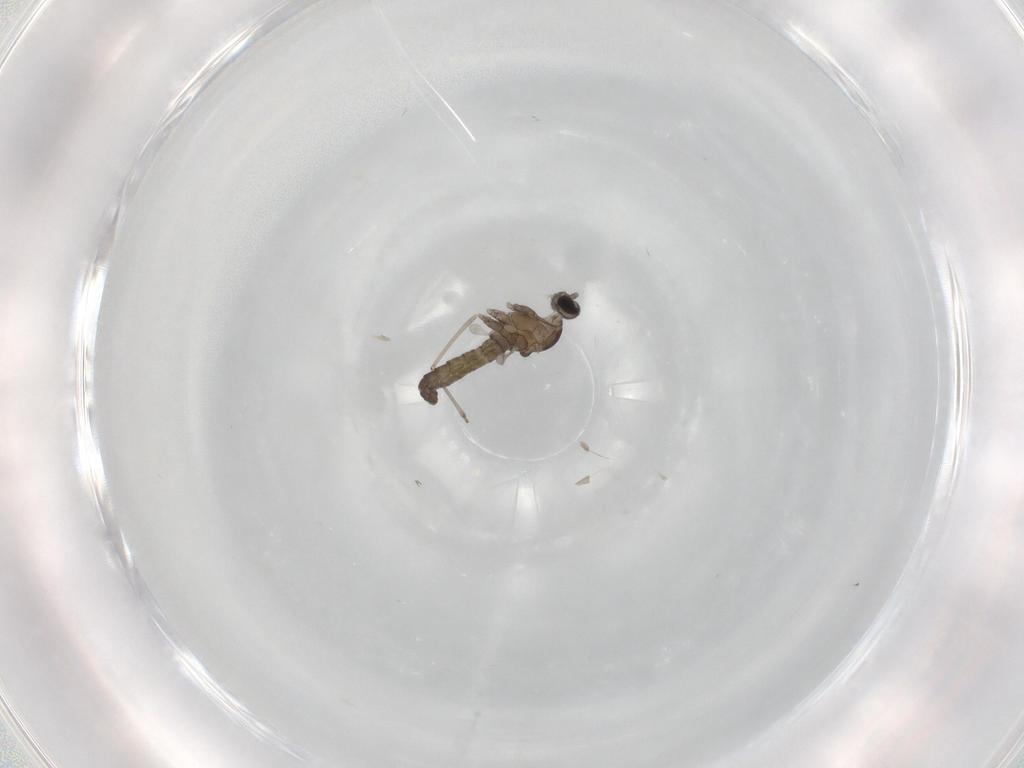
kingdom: Animalia
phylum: Arthropoda
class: Insecta
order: Diptera
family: Cecidomyiidae
